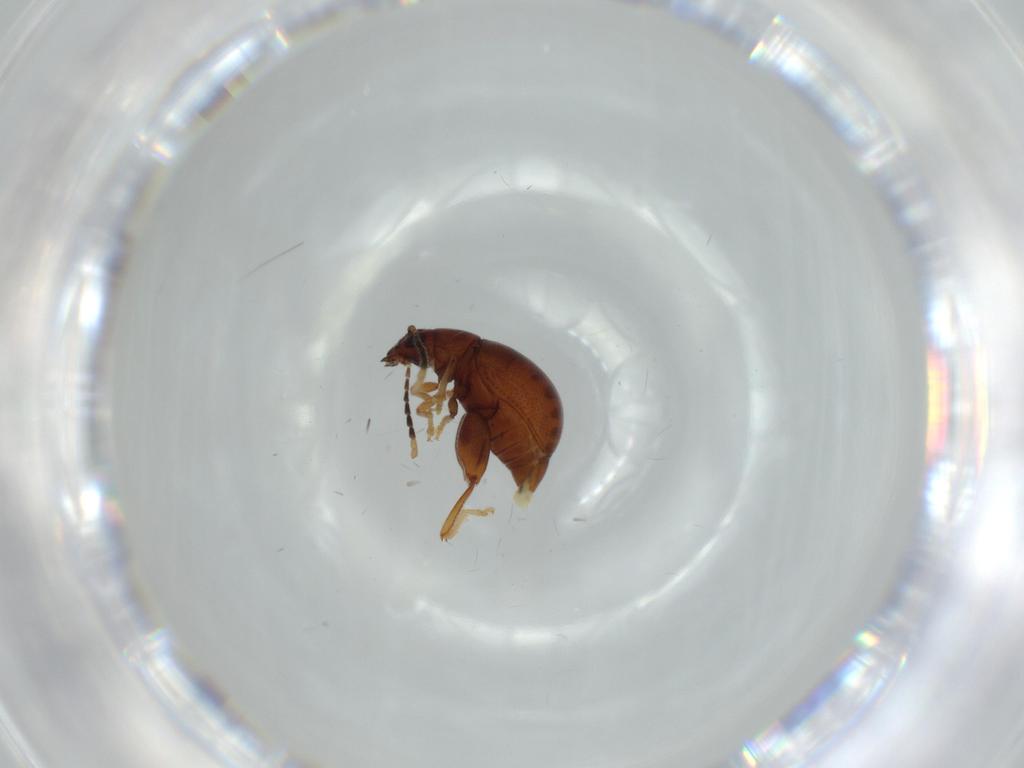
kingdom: Animalia
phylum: Arthropoda
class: Insecta
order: Coleoptera
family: Chrysomelidae
